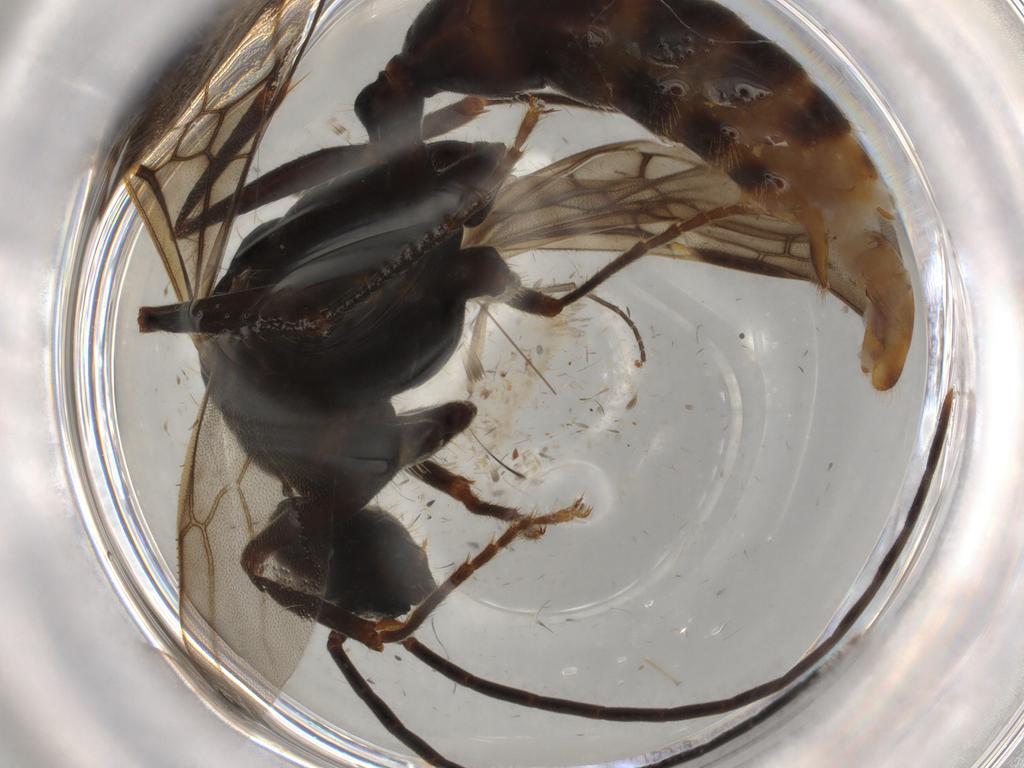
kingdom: Animalia
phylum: Arthropoda
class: Insecta
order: Hymenoptera
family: Formicidae
